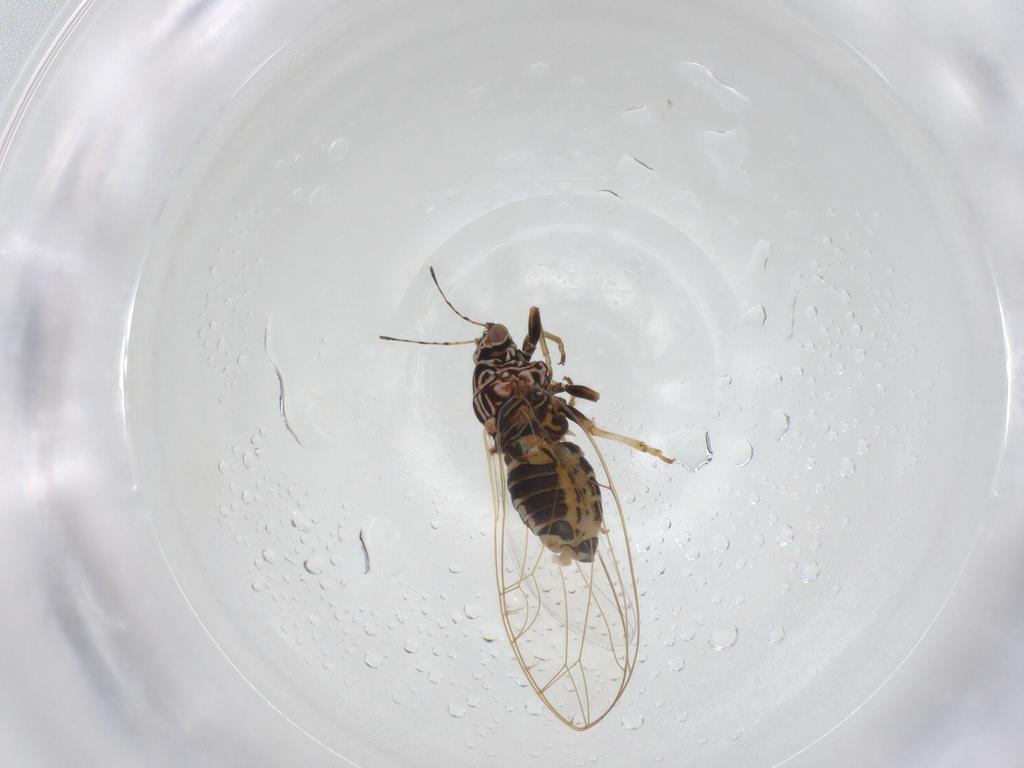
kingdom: Animalia
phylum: Arthropoda
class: Insecta
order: Hemiptera
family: Triozidae
